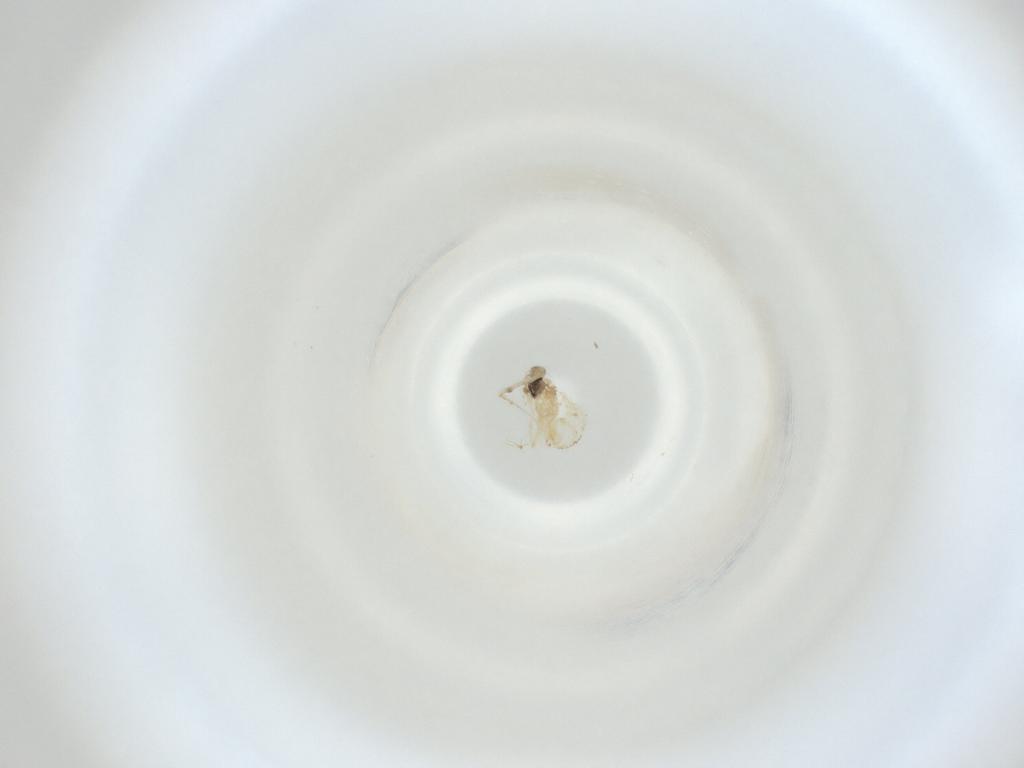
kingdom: Animalia
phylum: Arthropoda
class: Insecta
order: Diptera
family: Cecidomyiidae
